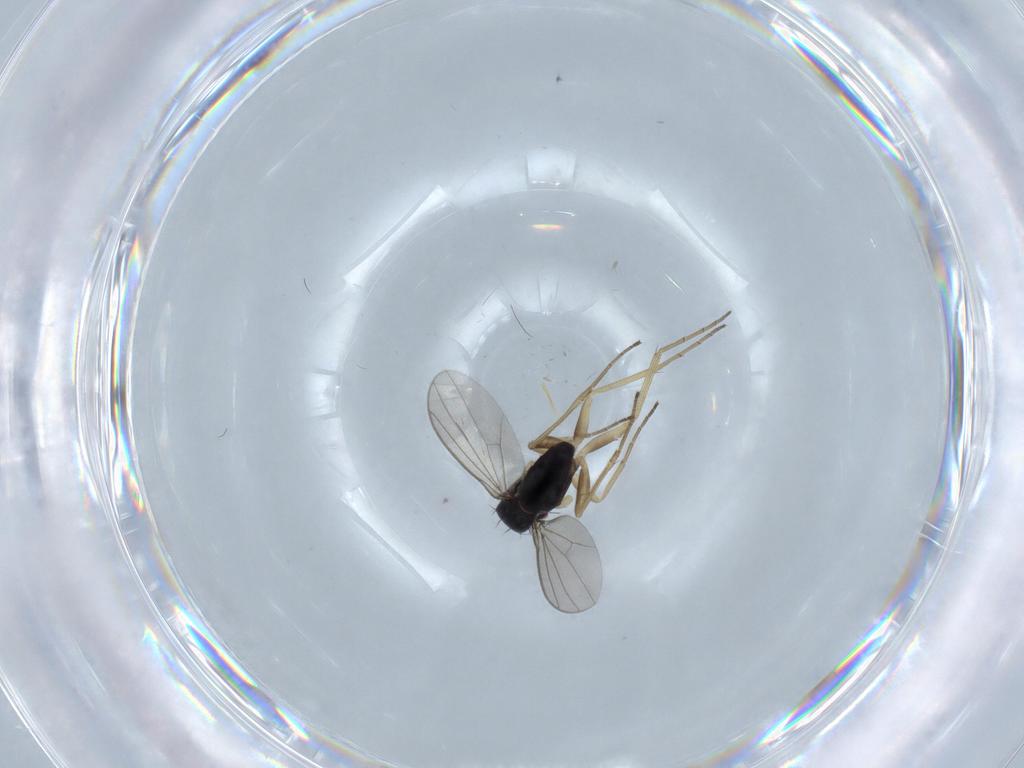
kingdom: Animalia
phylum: Arthropoda
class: Insecta
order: Diptera
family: Dolichopodidae
